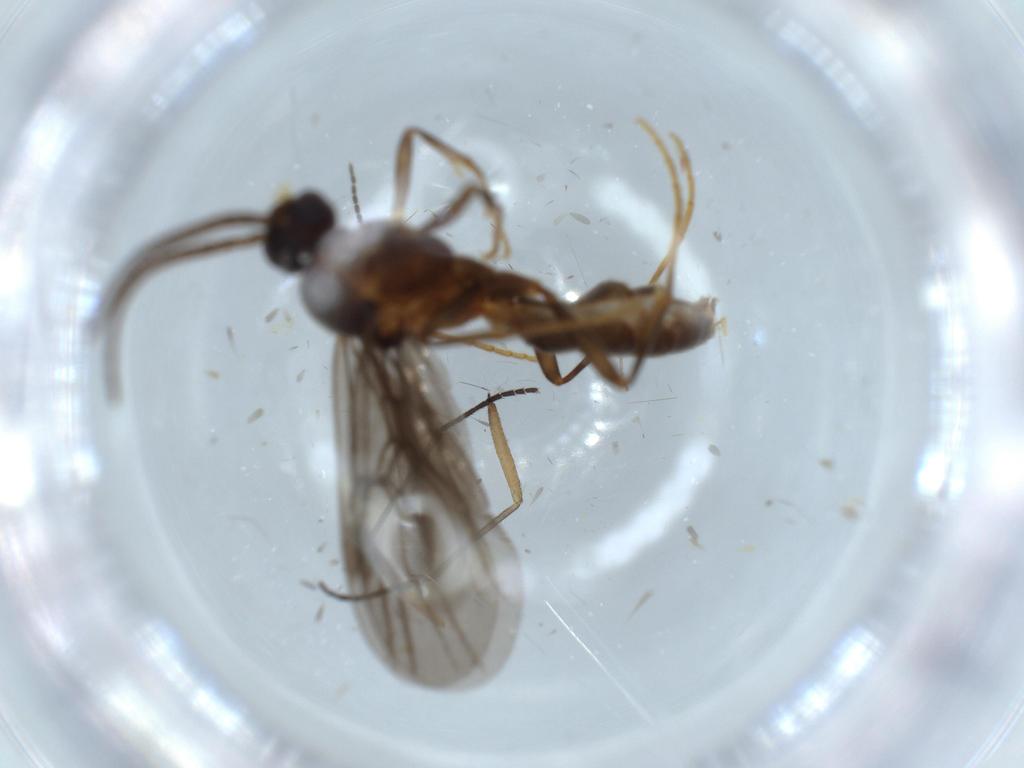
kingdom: Animalia
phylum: Arthropoda
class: Insecta
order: Hymenoptera
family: Formicidae
